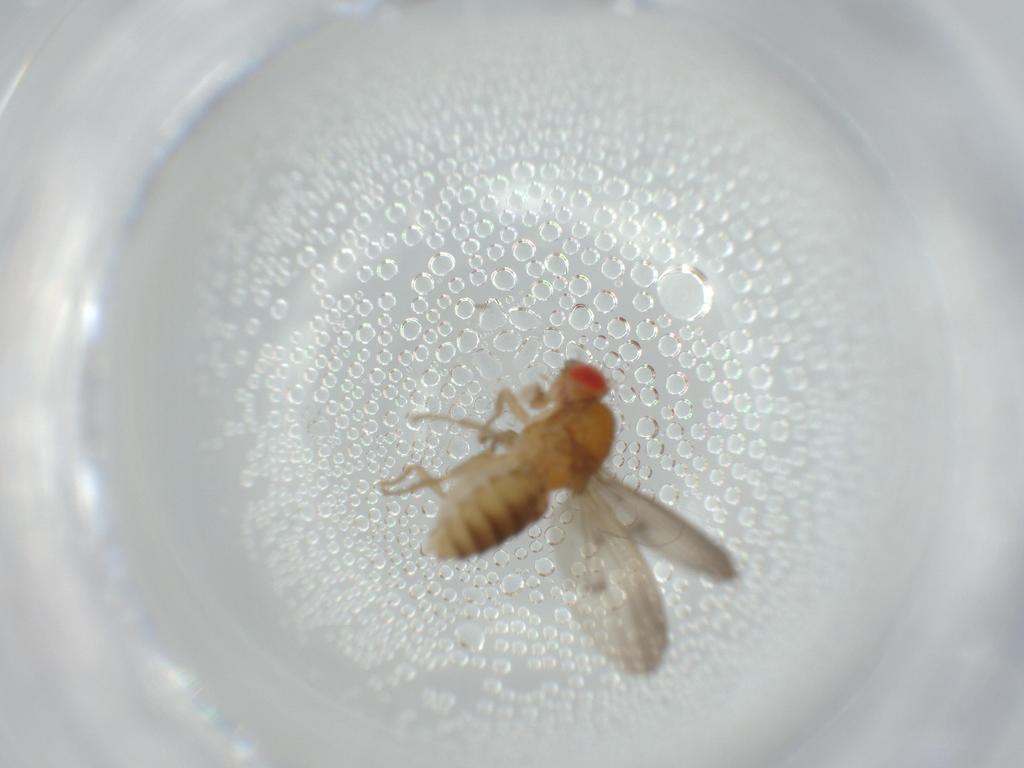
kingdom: Animalia
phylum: Arthropoda
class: Insecta
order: Diptera
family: Drosophilidae
